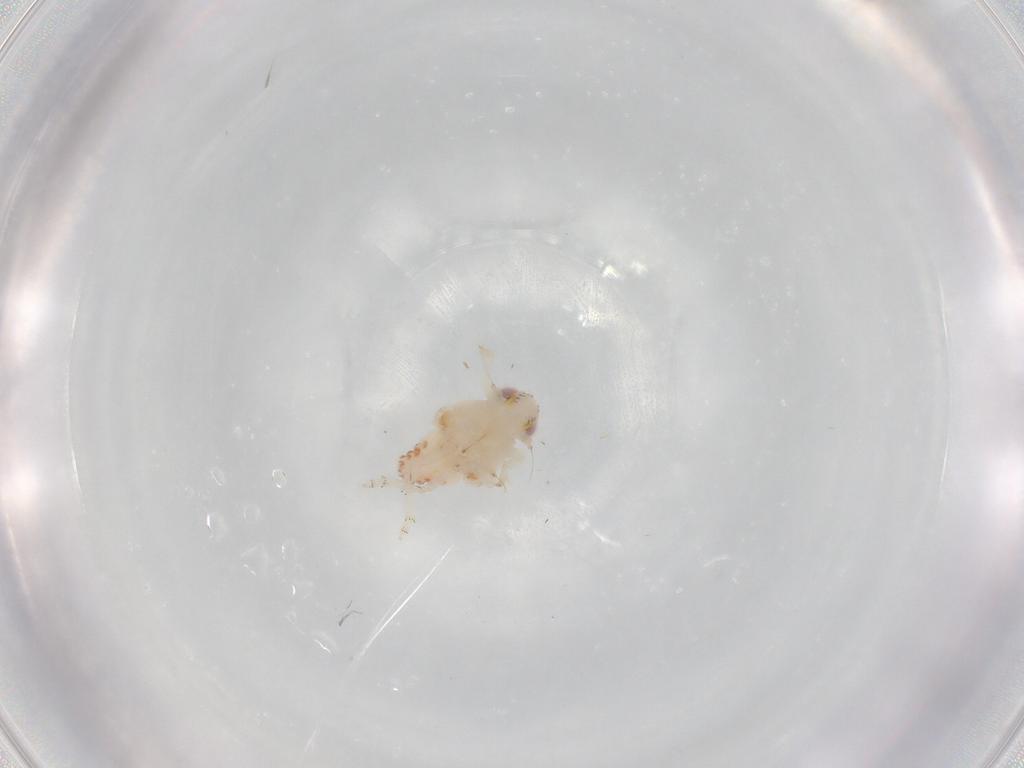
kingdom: Animalia
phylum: Arthropoda
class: Insecta
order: Hemiptera
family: Nogodinidae
